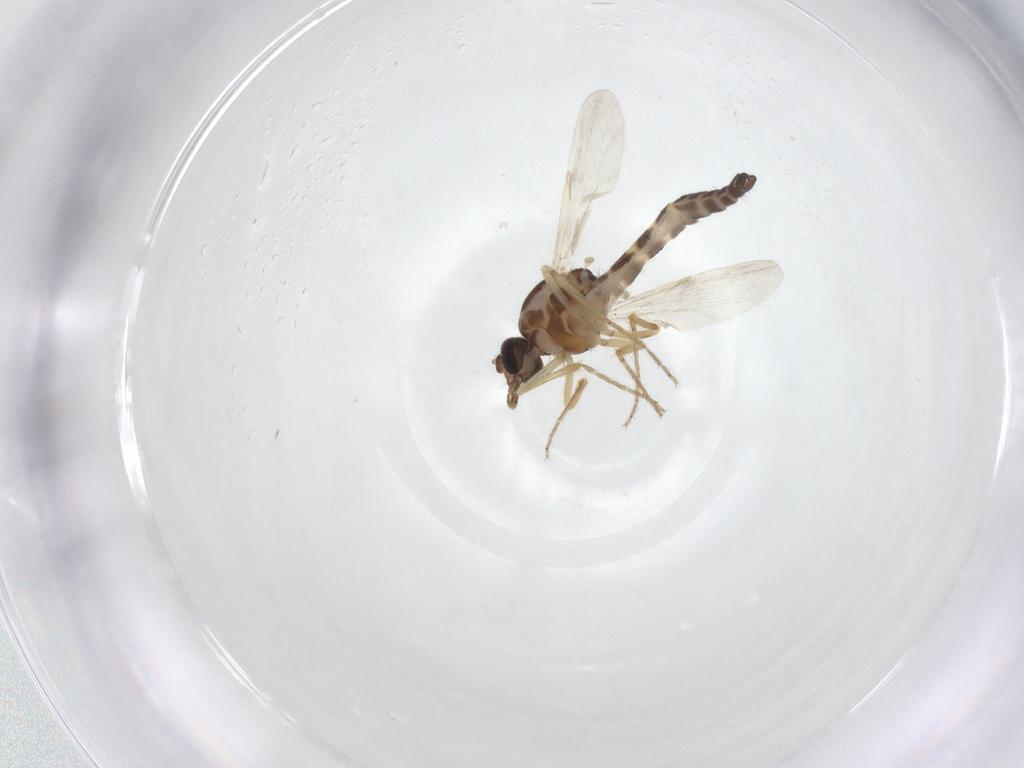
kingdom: Animalia
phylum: Arthropoda
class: Insecta
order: Diptera
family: Ceratopogonidae
